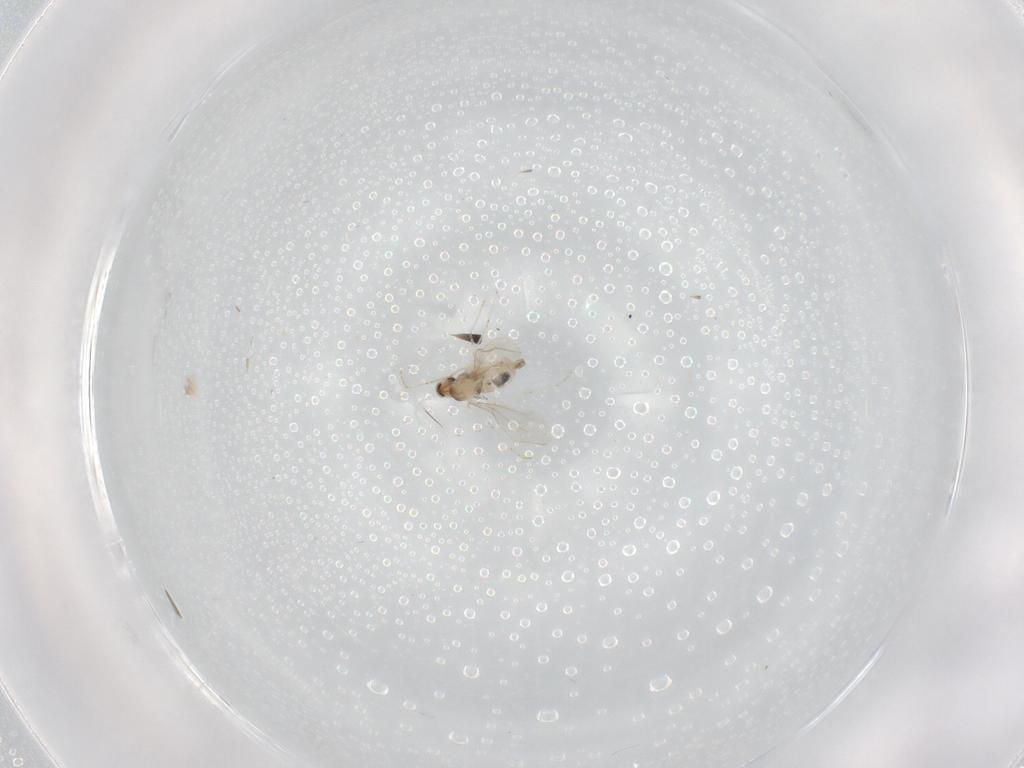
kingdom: Animalia
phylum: Arthropoda
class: Insecta
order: Diptera
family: Cecidomyiidae
